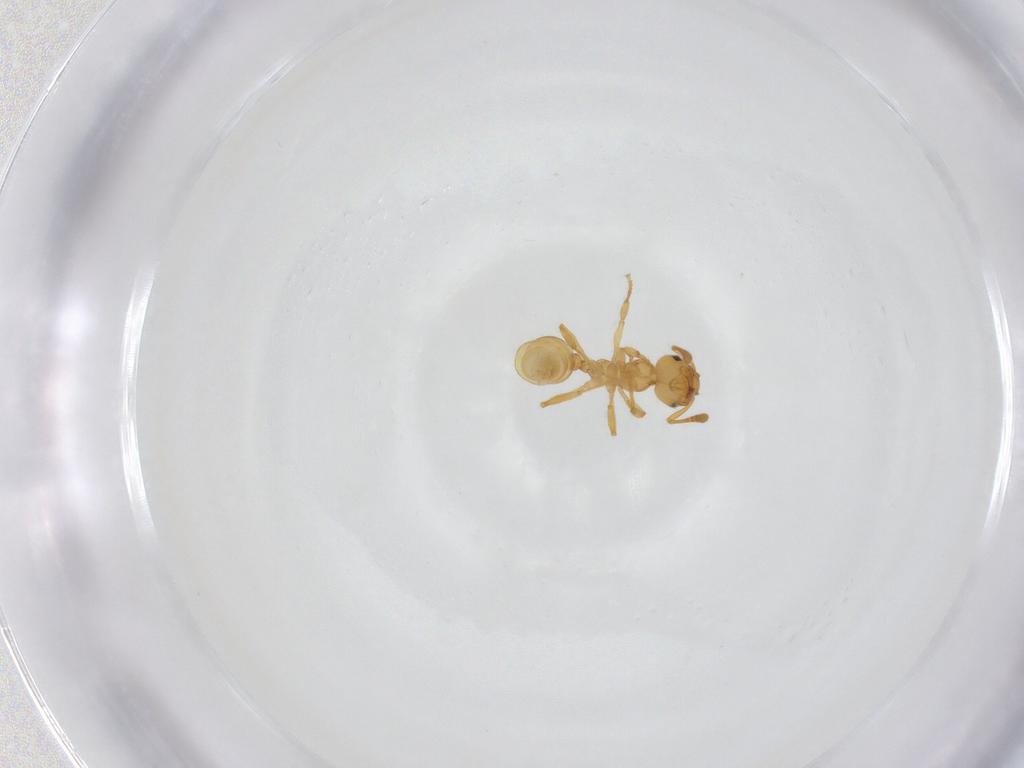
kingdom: Animalia
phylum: Arthropoda
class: Insecta
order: Hymenoptera
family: Formicidae
